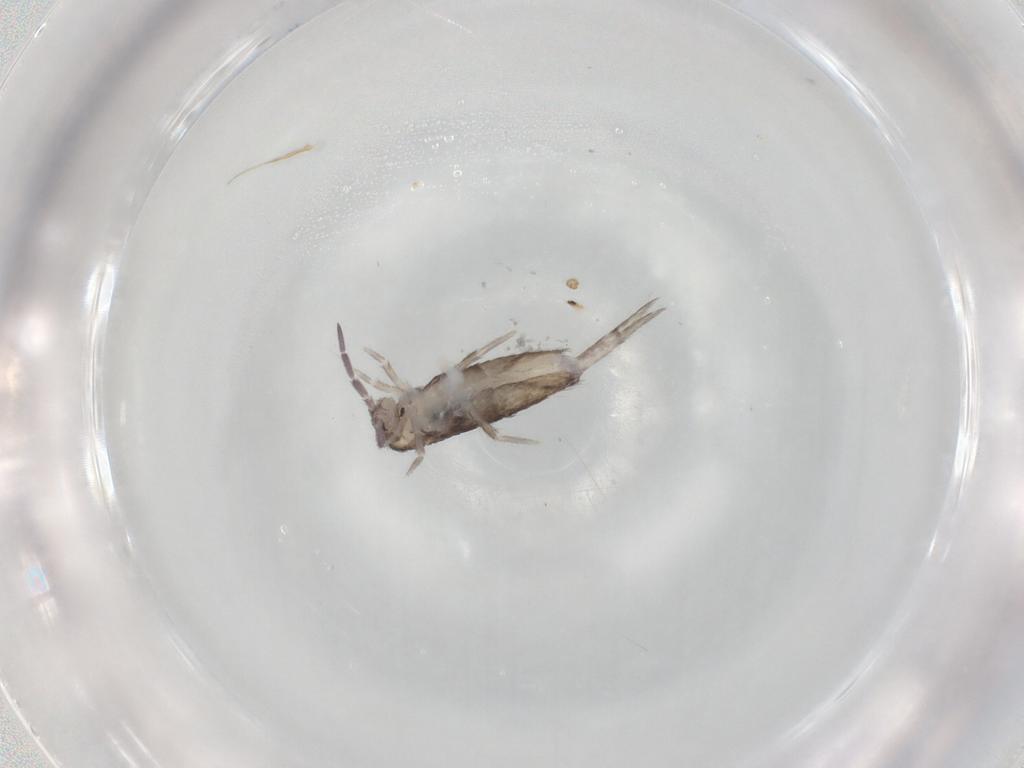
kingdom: Animalia
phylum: Arthropoda
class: Collembola
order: Entomobryomorpha
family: Entomobryidae
